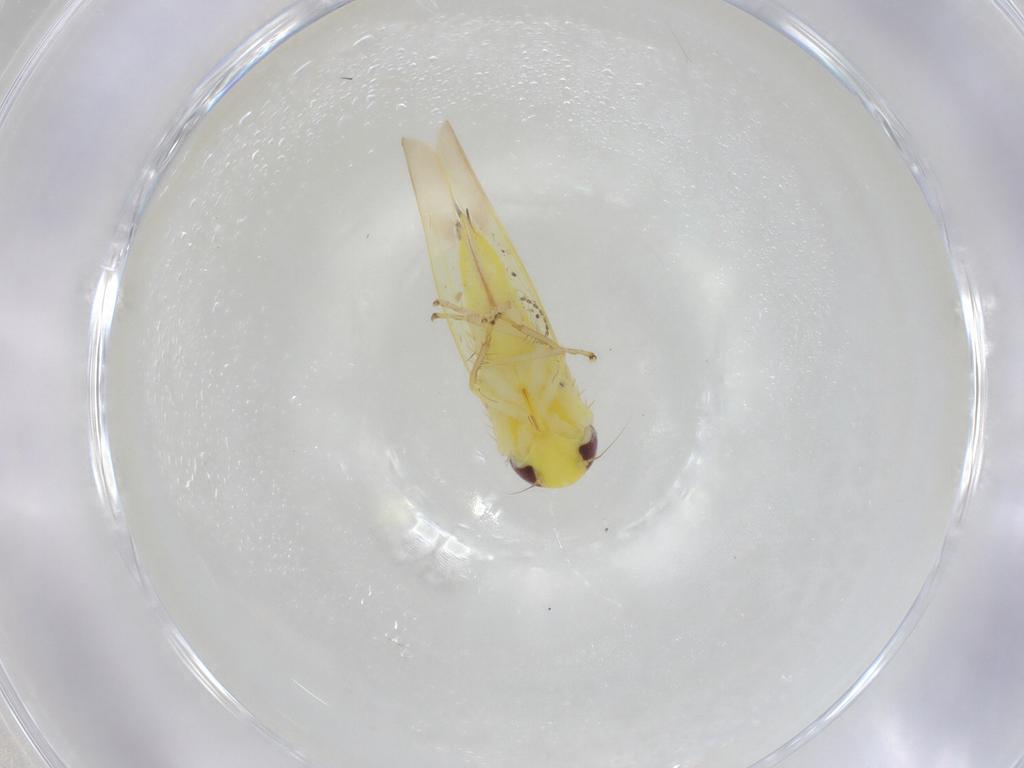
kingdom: Animalia
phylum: Arthropoda
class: Insecta
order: Hemiptera
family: Cicadellidae
